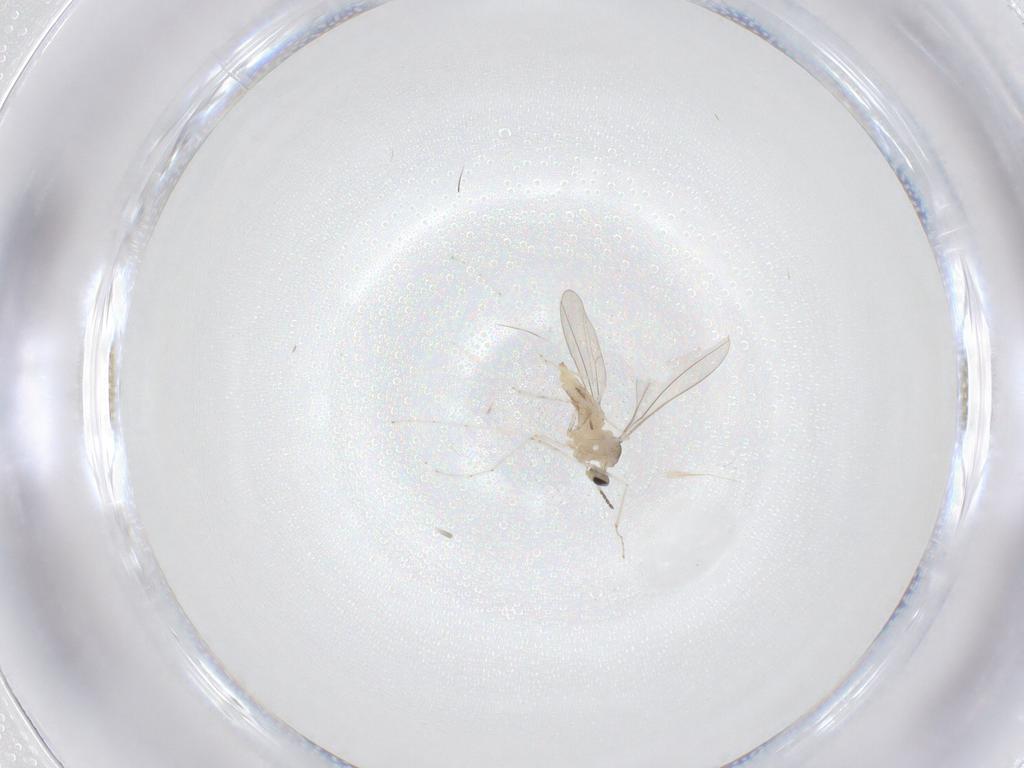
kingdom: Animalia
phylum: Arthropoda
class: Insecta
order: Diptera
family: Cecidomyiidae
